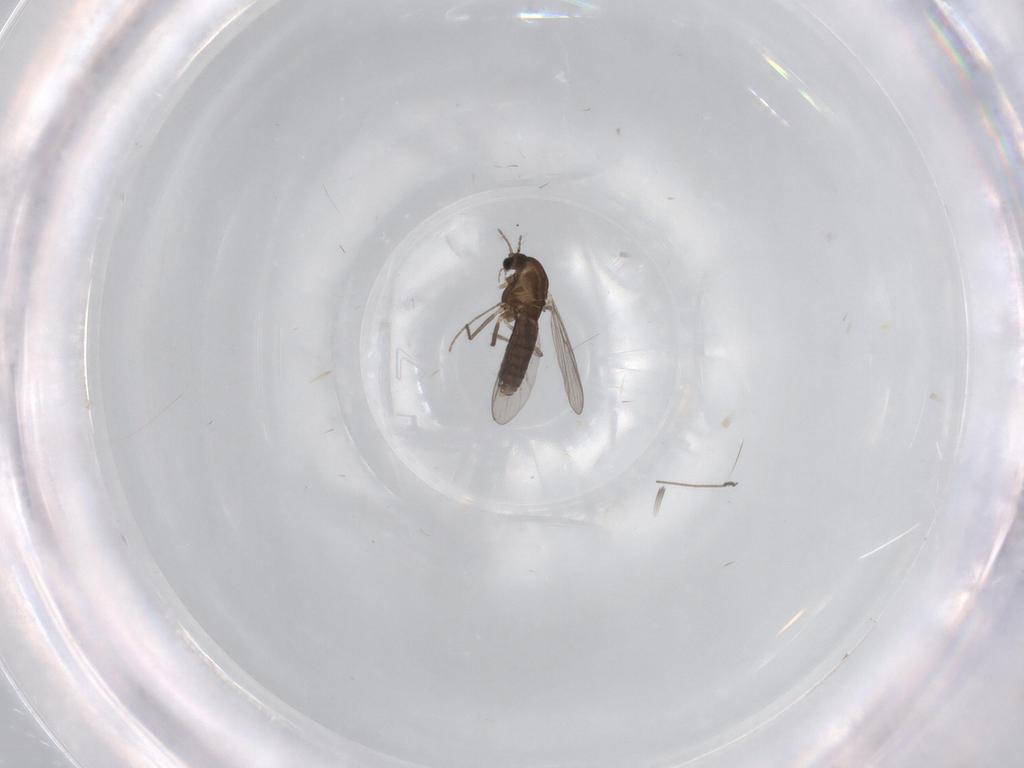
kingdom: Animalia
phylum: Arthropoda
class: Insecta
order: Diptera
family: Chironomidae
